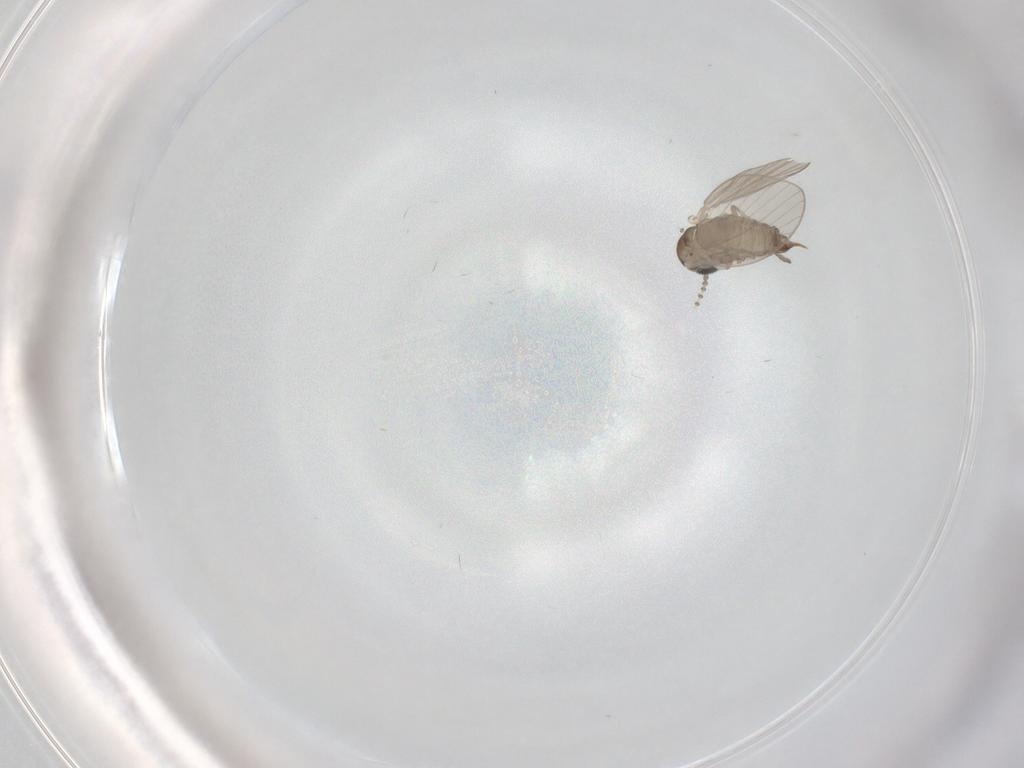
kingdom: Animalia
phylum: Arthropoda
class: Insecta
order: Diptera
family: Psychodidae
